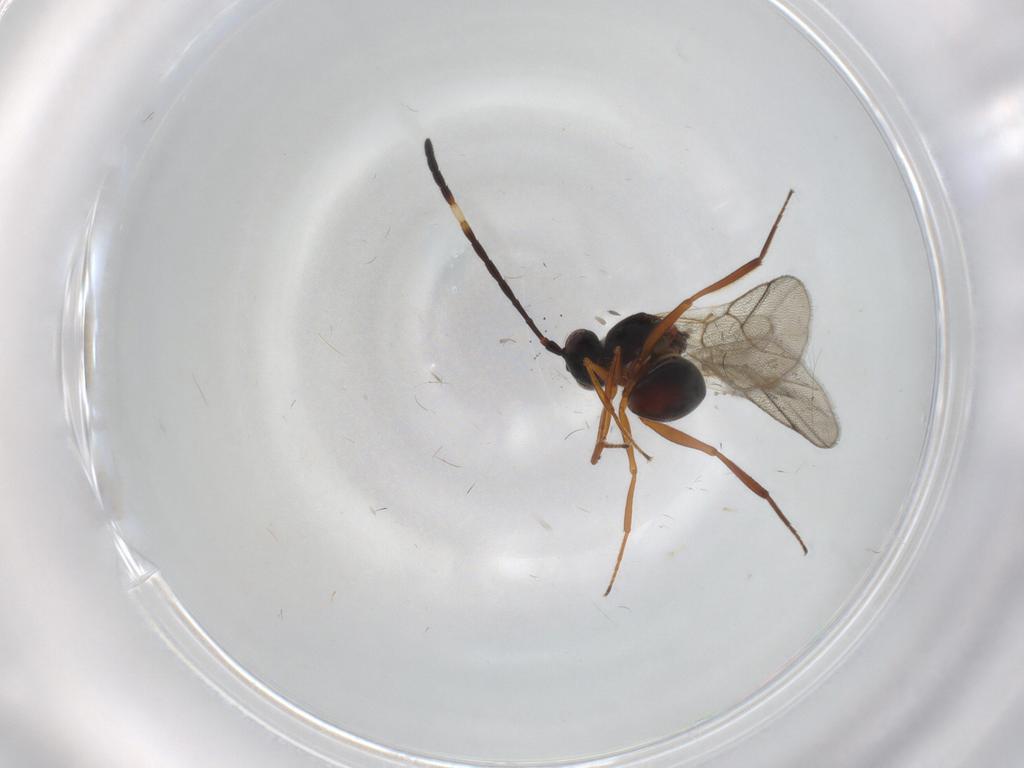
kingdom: Animalia
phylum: Arthropoda
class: Insecta
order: Hymenoptera
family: Figitidae
